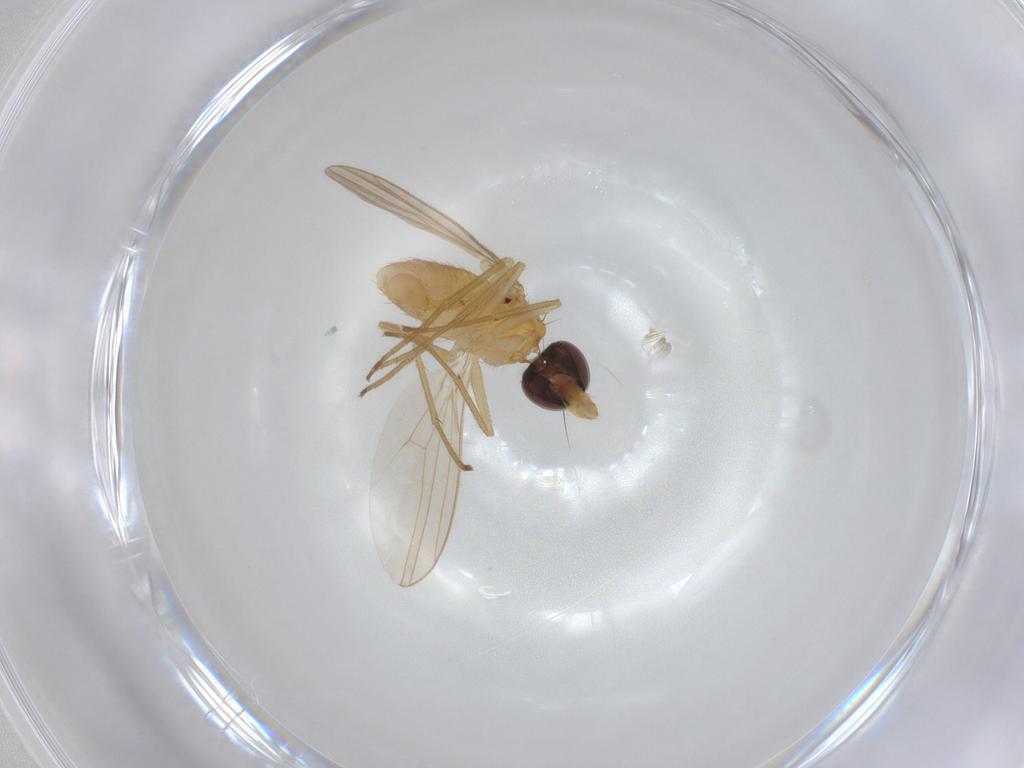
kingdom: Animalia
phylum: Arthropoda
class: Insecta
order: Diptera
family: Dolichopodidae
